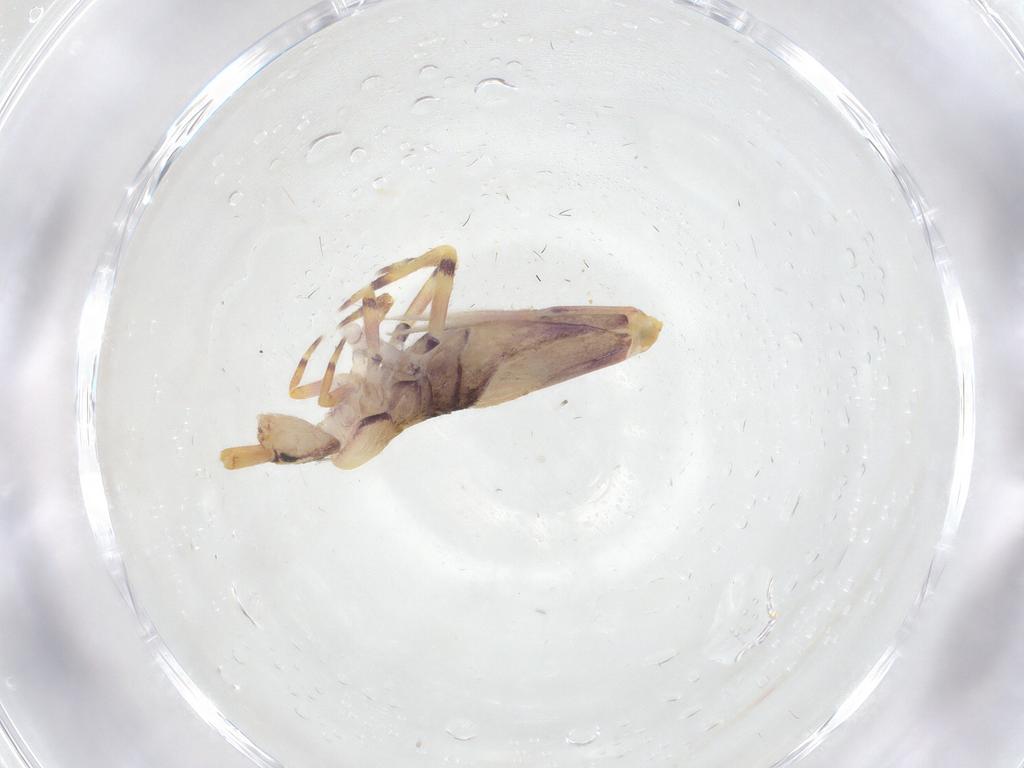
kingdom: Animalia
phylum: Arthropoda
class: Collembola
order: Entomobryomorpha
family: Entomobryidae
